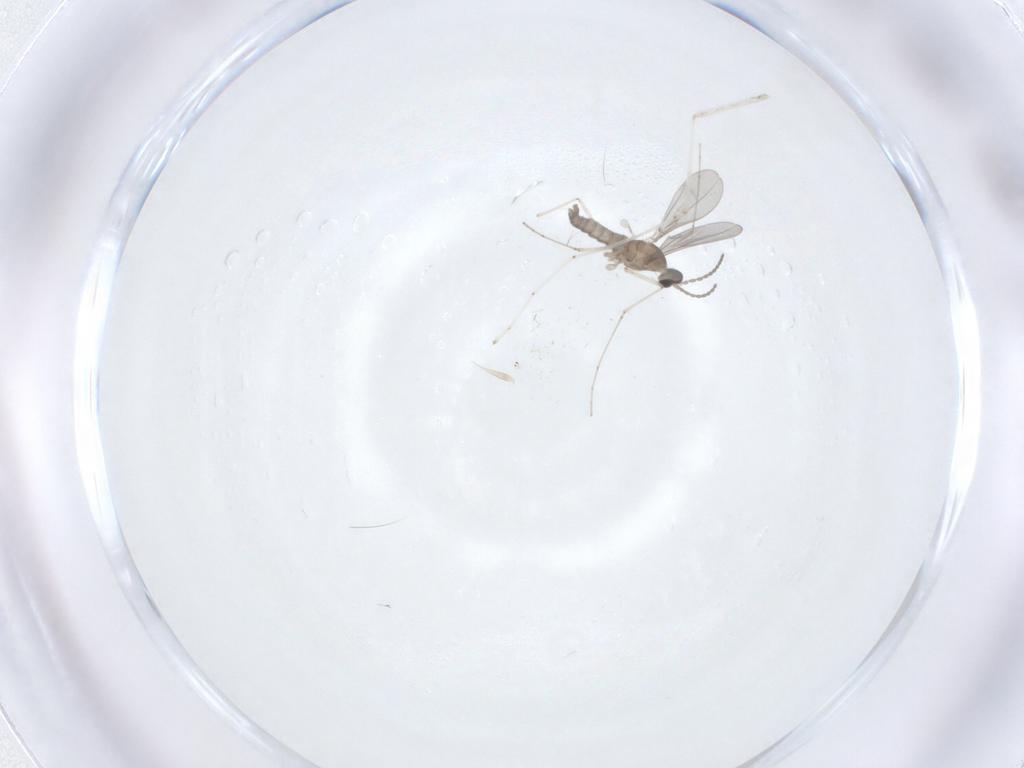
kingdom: Animalia
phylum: Arthropoda
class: Insecta
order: Diptera
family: Cecidomyiidae
